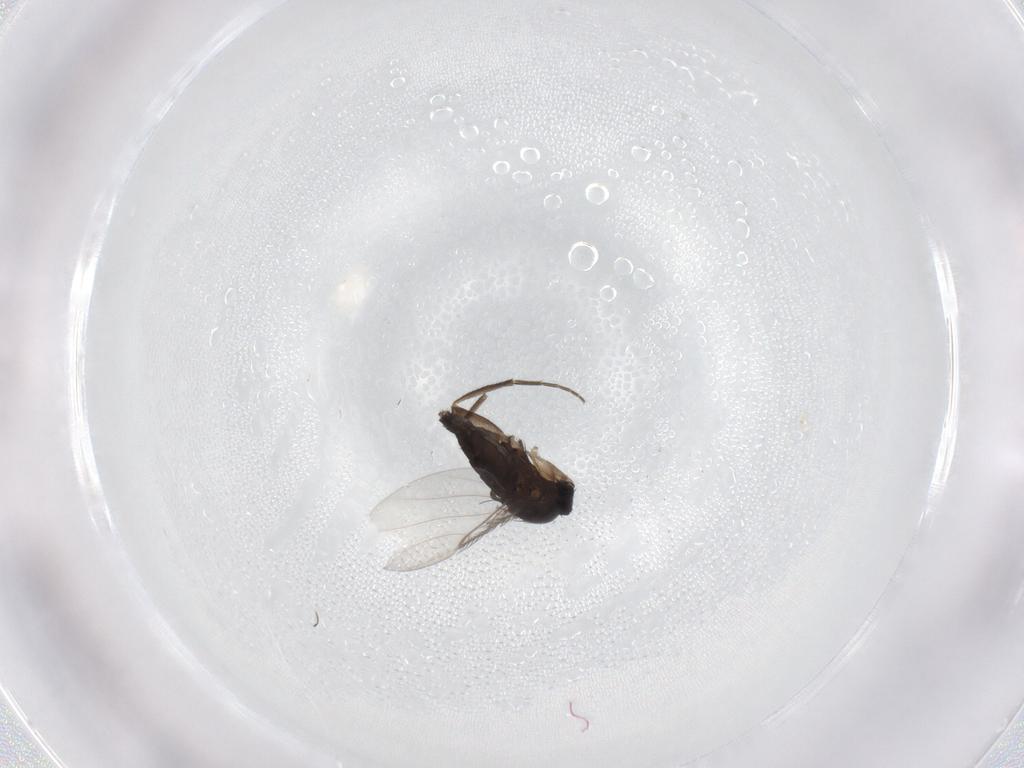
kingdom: Animalia
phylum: Arthropoda
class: Insecta
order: Diptera
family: Phoridae
